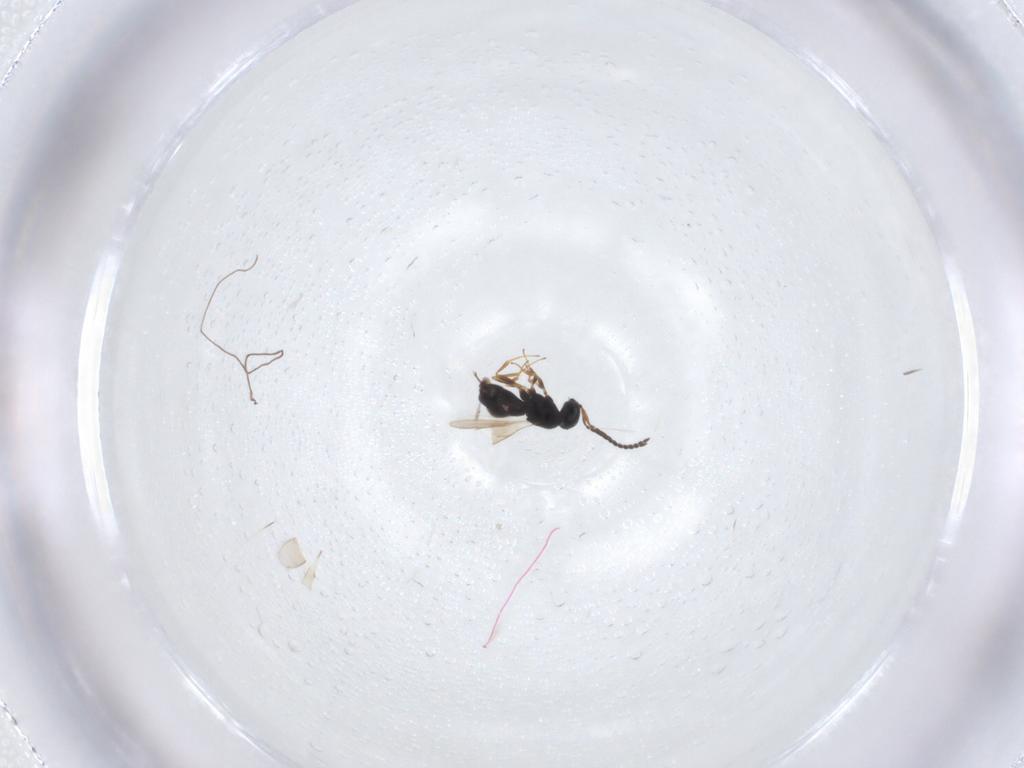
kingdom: Animalia
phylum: Arthropoda
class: Insecta
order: Hymenoptera
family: Scelionidae
